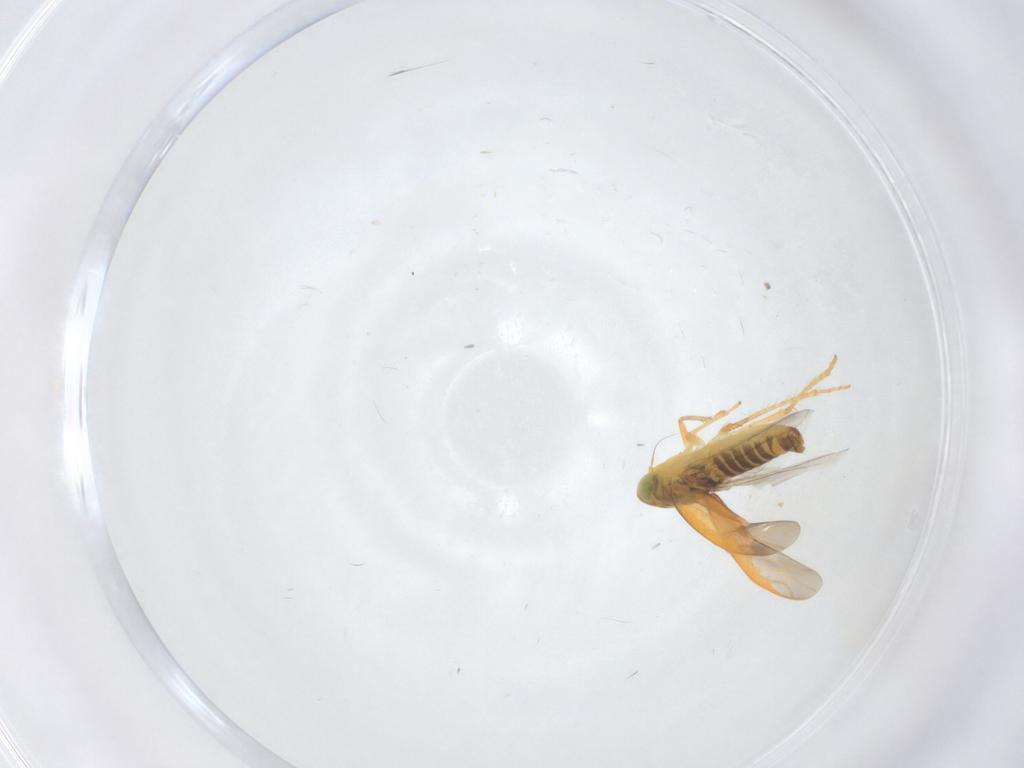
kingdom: Animalia
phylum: Arthropoda
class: Insecta
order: Hemiptera
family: Cicadellidae
